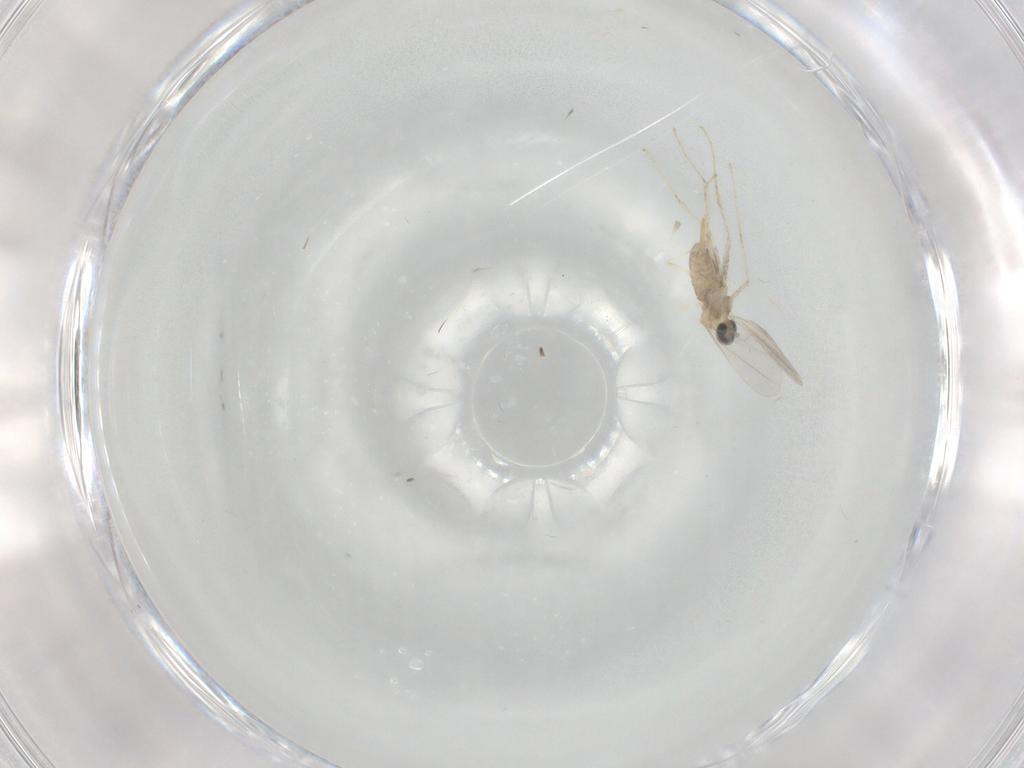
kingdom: Animalia
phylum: Arthropoda
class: Insecta
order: Diptera
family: Cecidomyiidae
